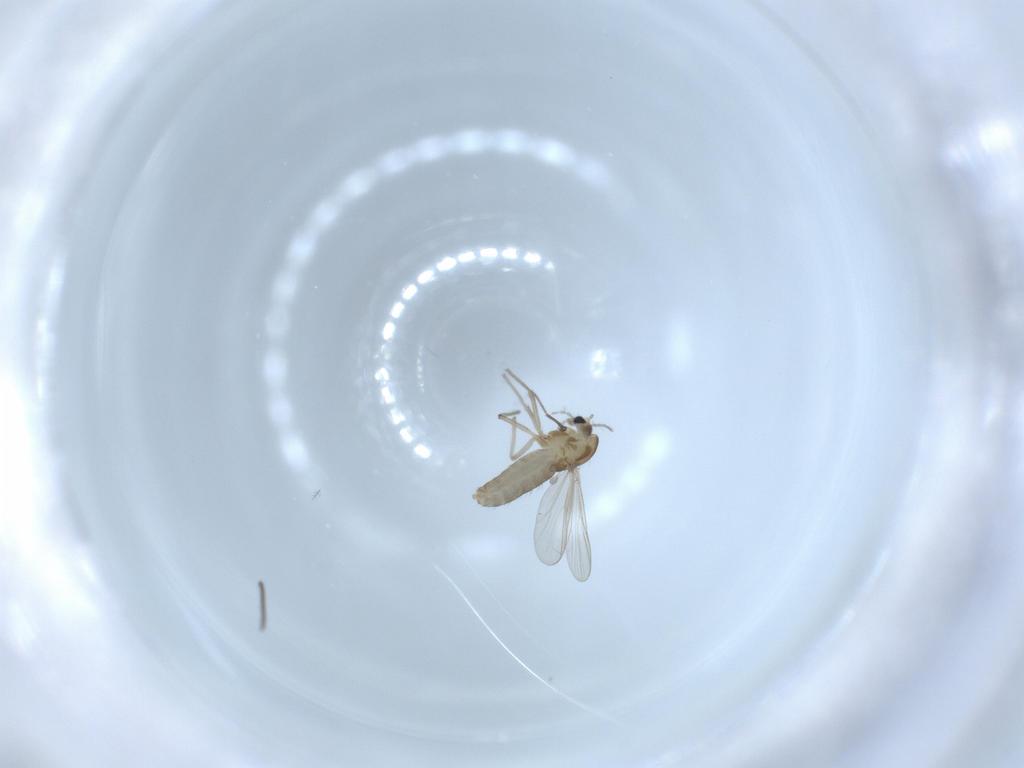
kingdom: Animalia
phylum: Arthropoda
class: Insecta
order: Diptera
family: Chironomidae
